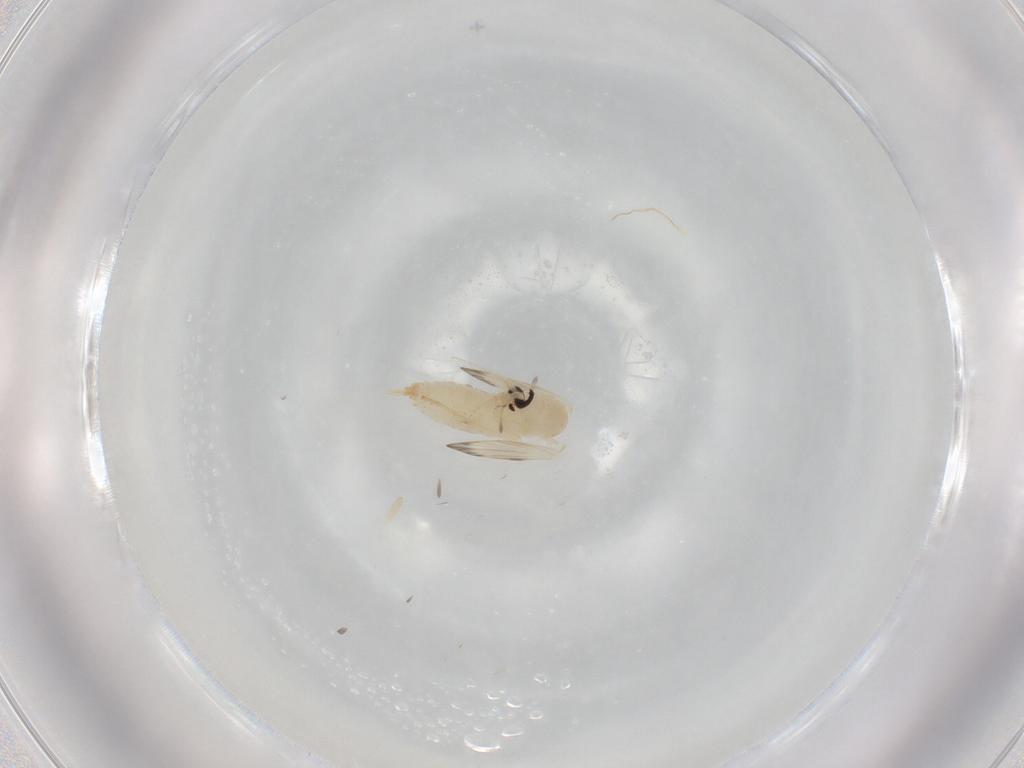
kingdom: Animalia
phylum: Arthropoda
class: Insecta
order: Diptera
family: Psychodidae
